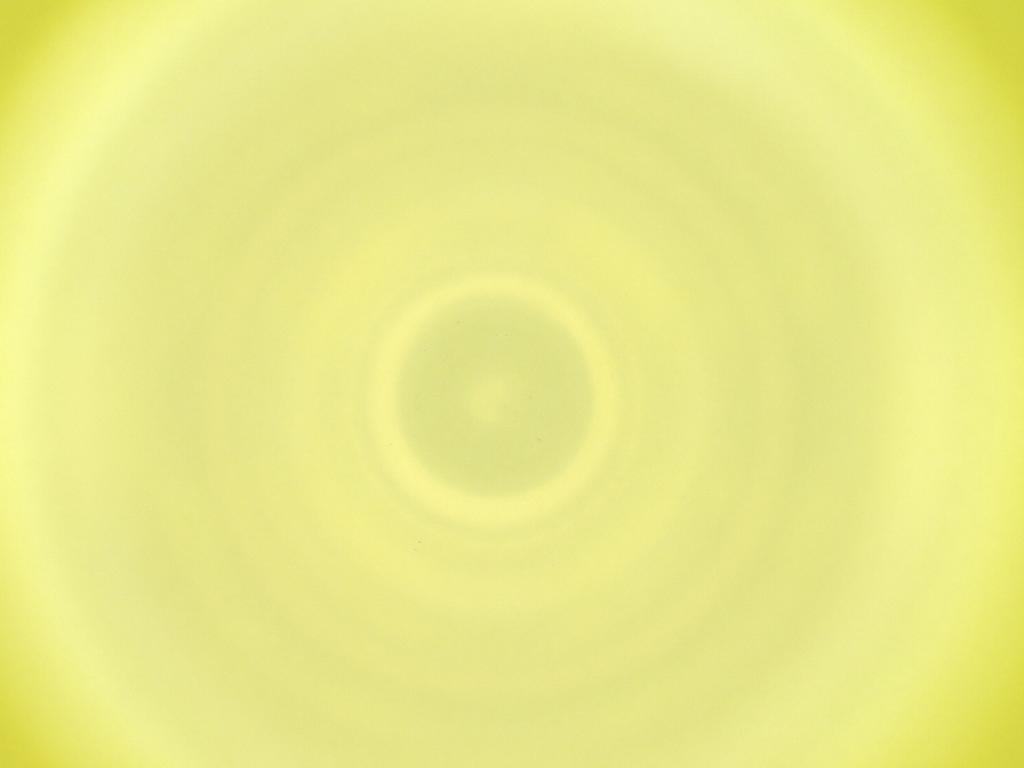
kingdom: Animalia
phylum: Arthropoda
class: Insecta
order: Diptera
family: Cecidomyiidae
